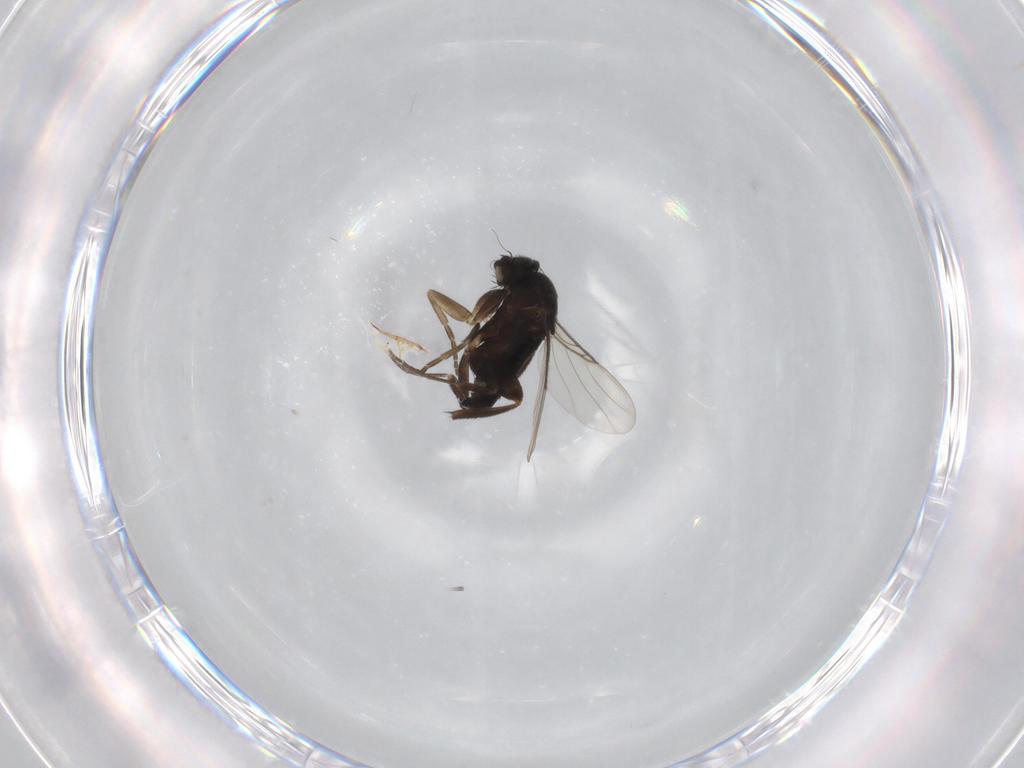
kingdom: Animalia
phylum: Arthropoda
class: Insecta
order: Diptera
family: Phoridae
